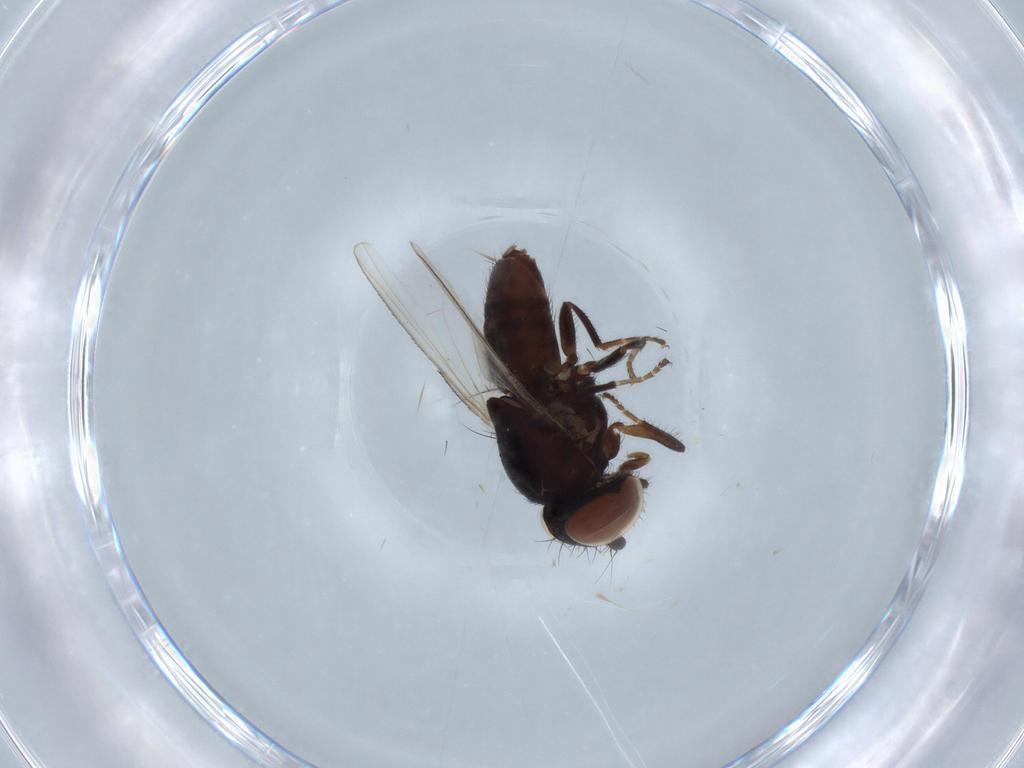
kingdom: Animalia
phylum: Arthropoda
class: Insecta
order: Diptera
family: Milichiidae
